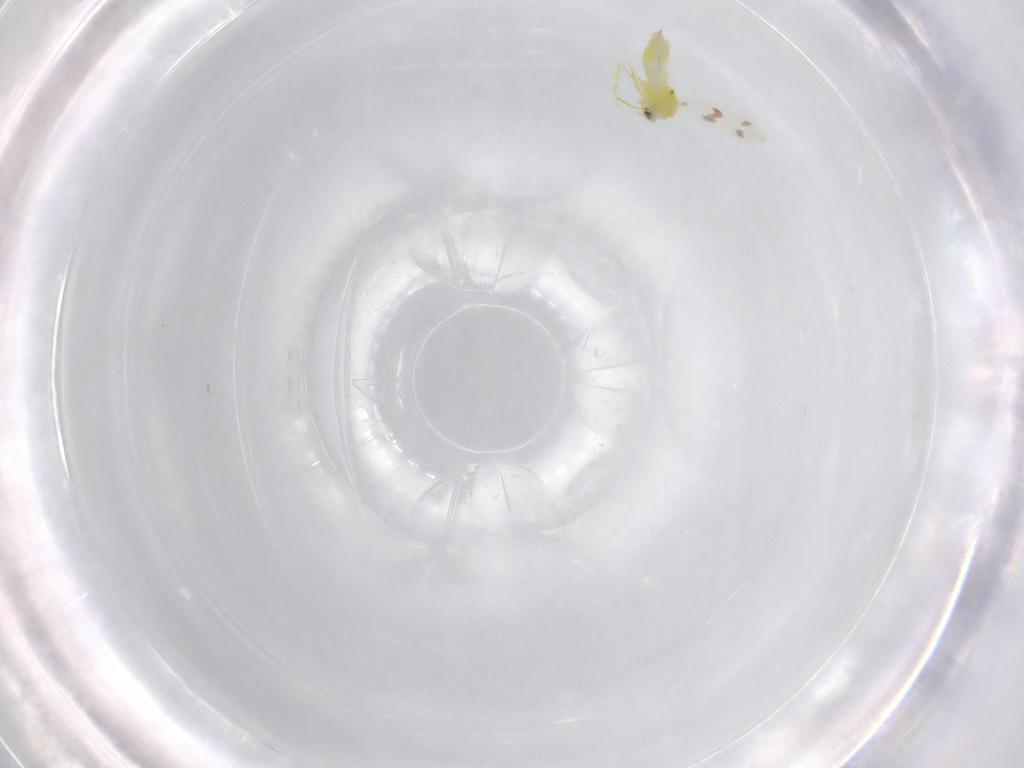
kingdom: Animalia
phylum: Arthropoda
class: Insecta
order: Hemiptera
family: Aleyrodidae
